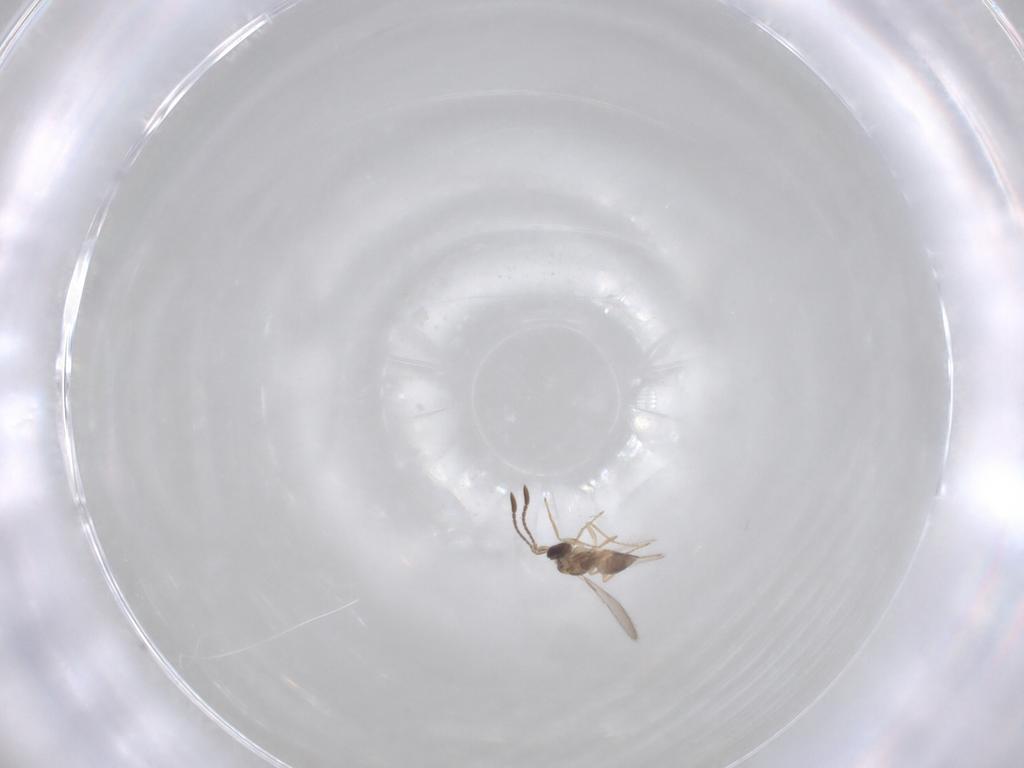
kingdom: Animalia
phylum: Arthropoda
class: Insecta
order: Hymenoptera
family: Mymaridae
